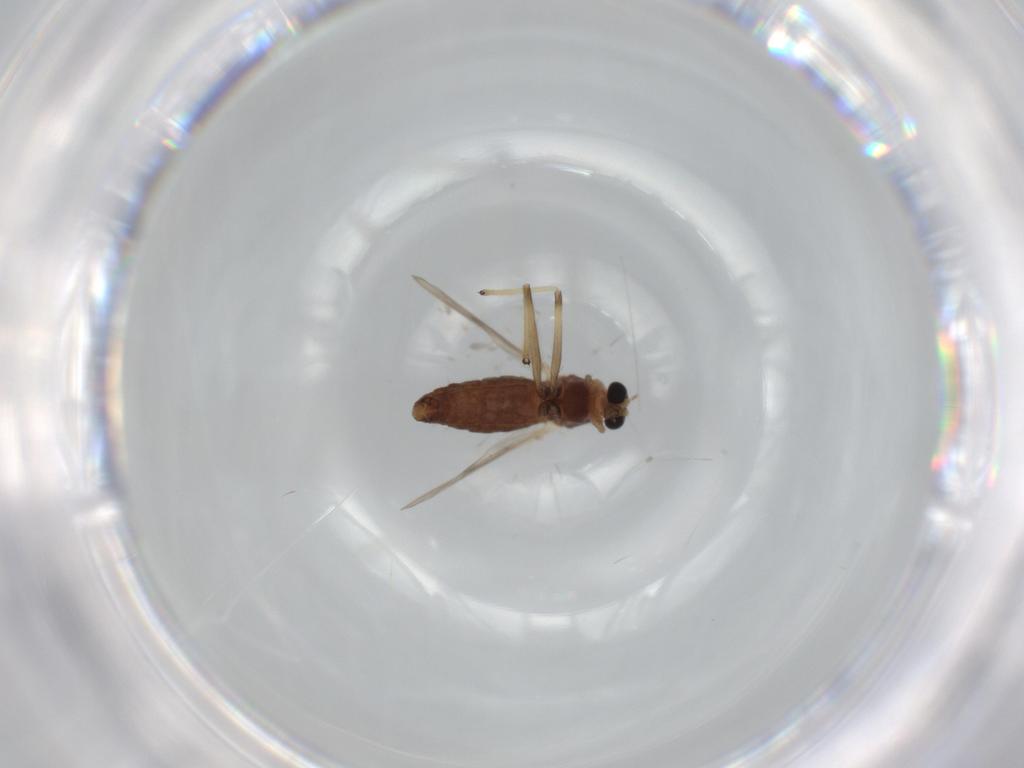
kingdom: Animalia
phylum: Arthropoda
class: Insecta
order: Diptera
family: Chironomidae
